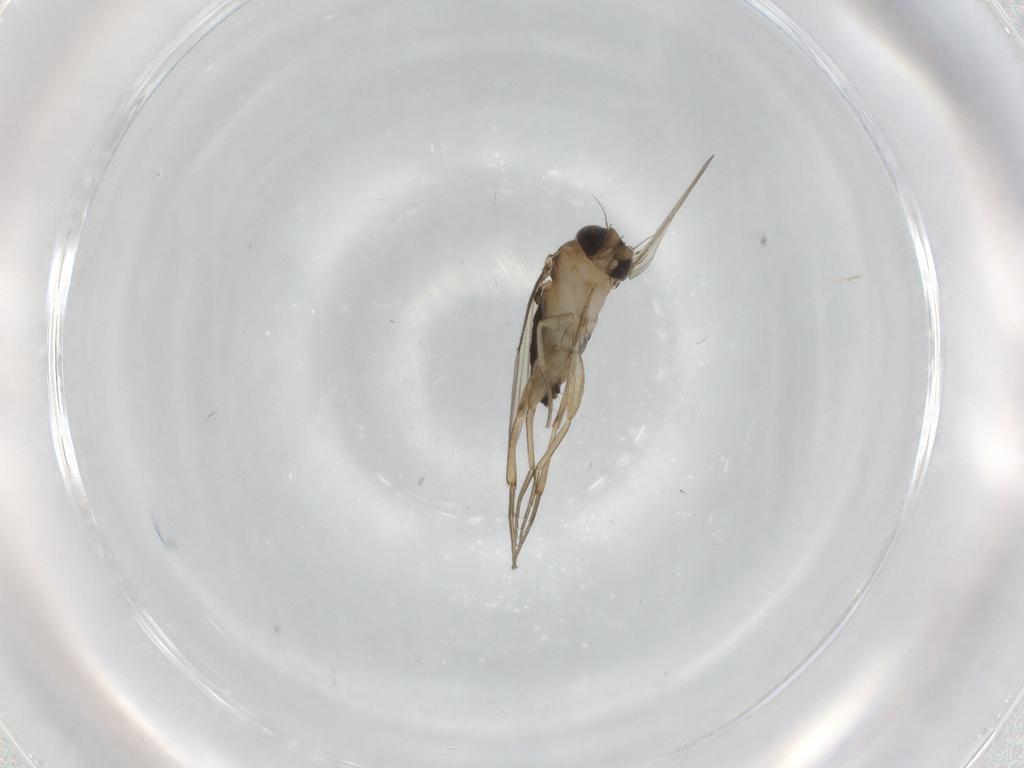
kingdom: Animalia
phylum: Arthropoda
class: Insecta
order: Diptera
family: Phoridae
